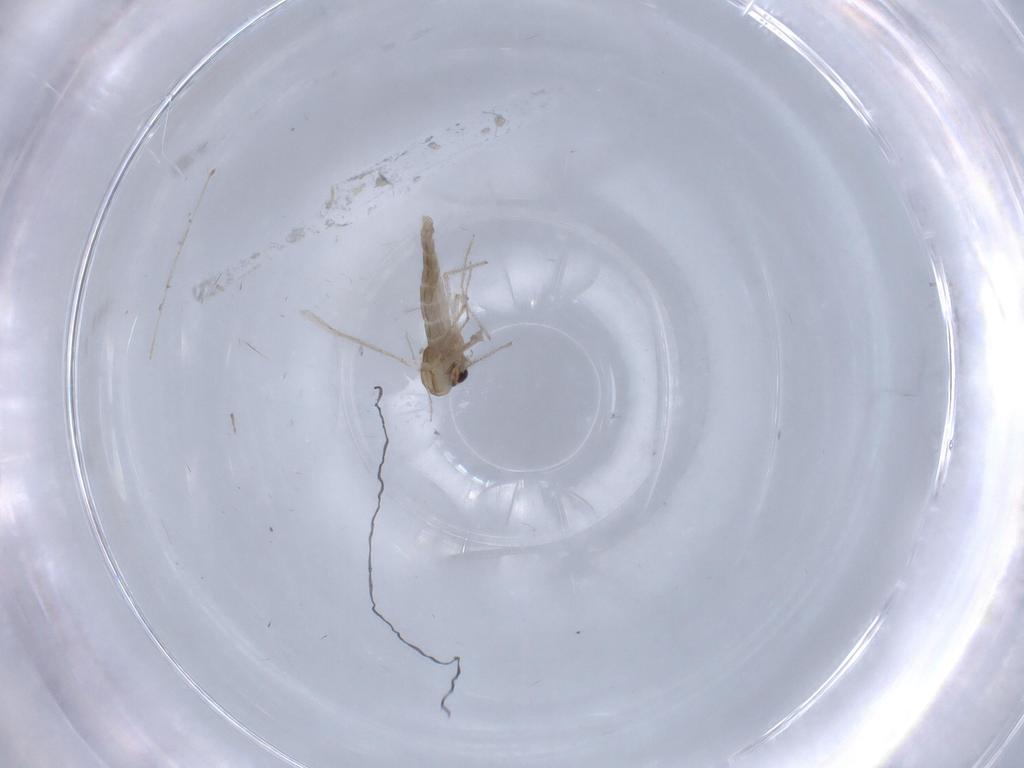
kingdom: Animalia
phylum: Arthropoda
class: Insecta
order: Diptera
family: Chironomidae
